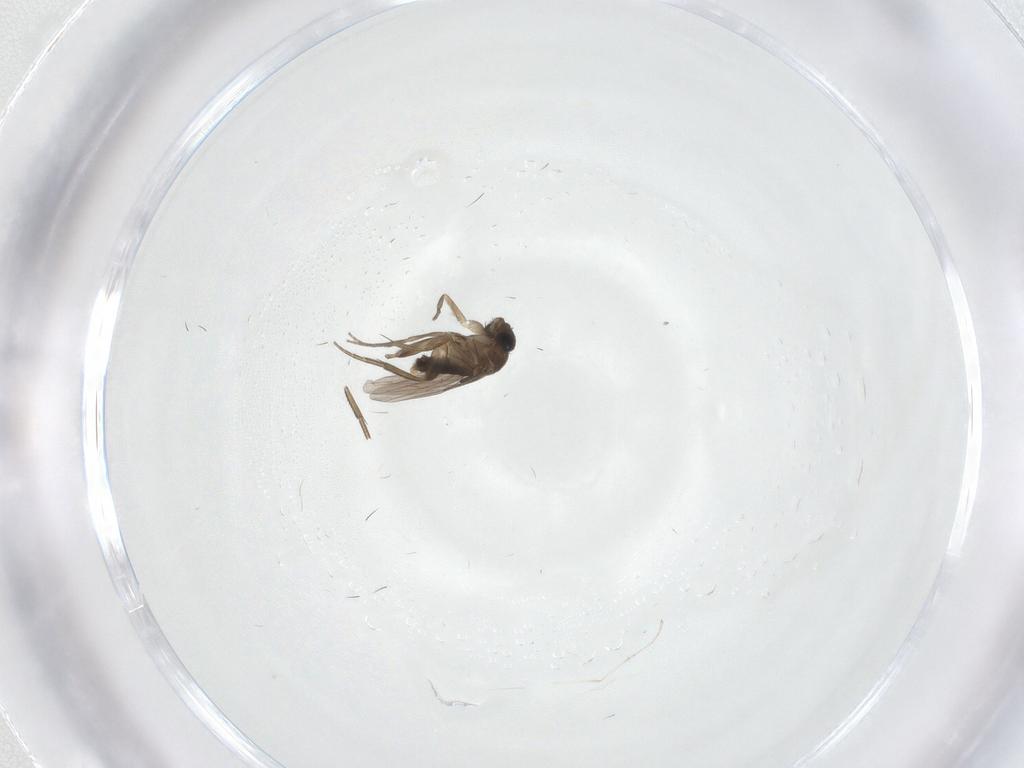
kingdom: Animalia
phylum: Arthropoda
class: Insecta
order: Diptera
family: Phoridae
